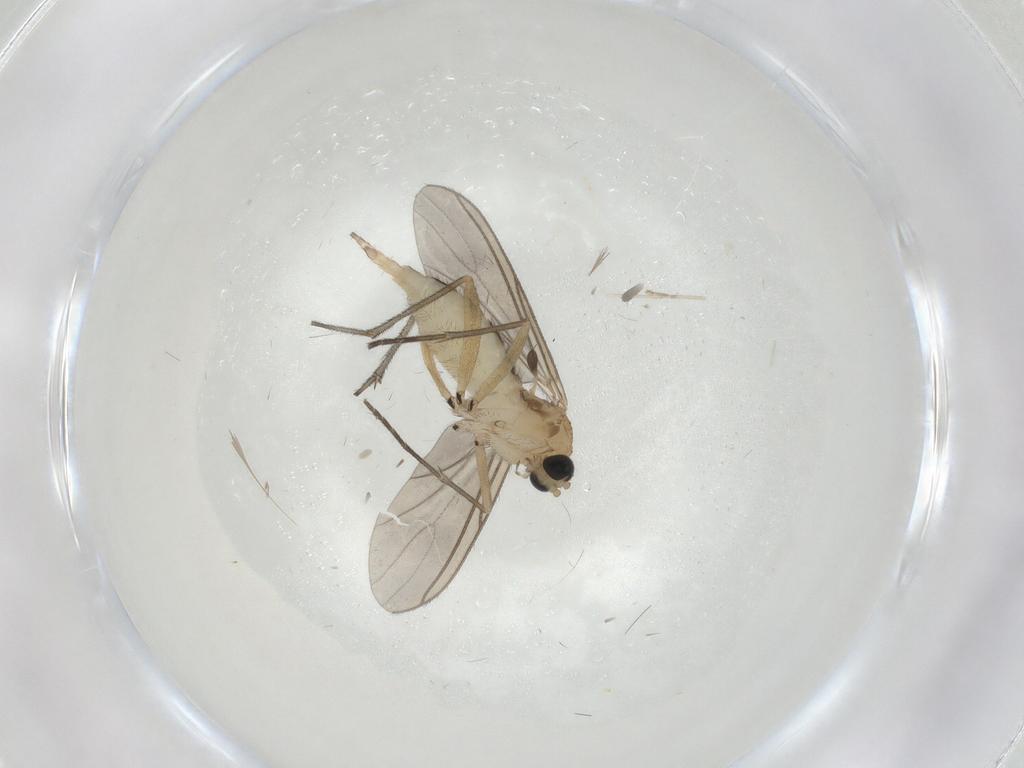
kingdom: Animalia
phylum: Arthropoda
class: Insecta
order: Diptera
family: Sciaridae
